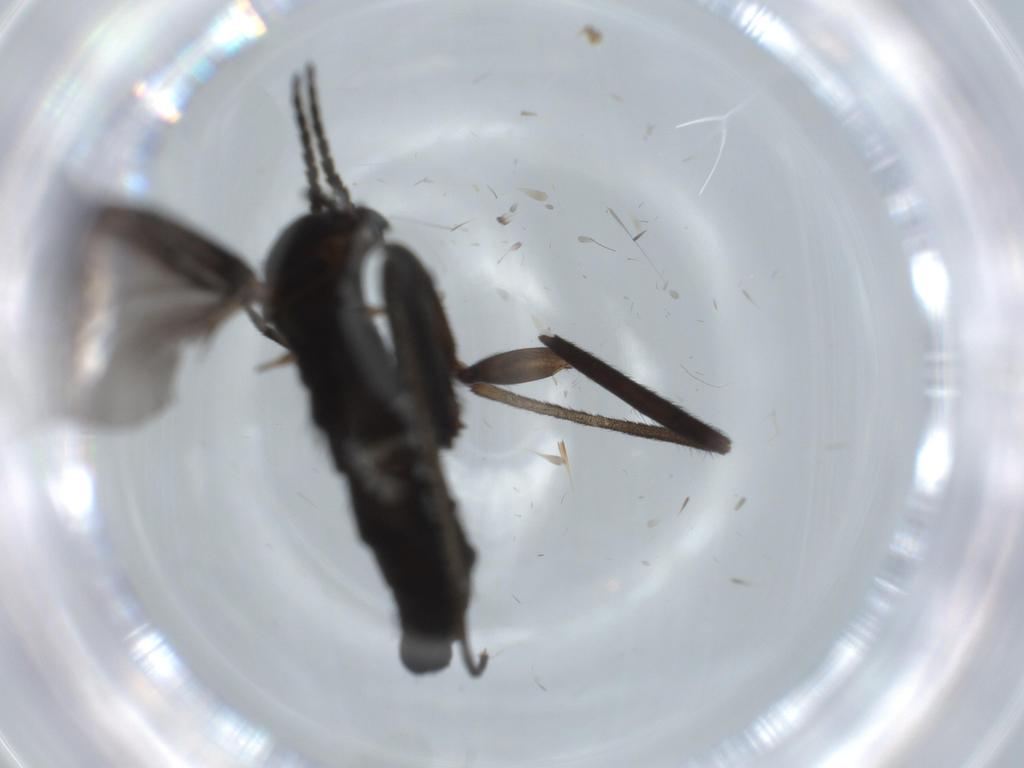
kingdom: Animalia
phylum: Arthropoda
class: Insecta
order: Diptera
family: Sciaridae
